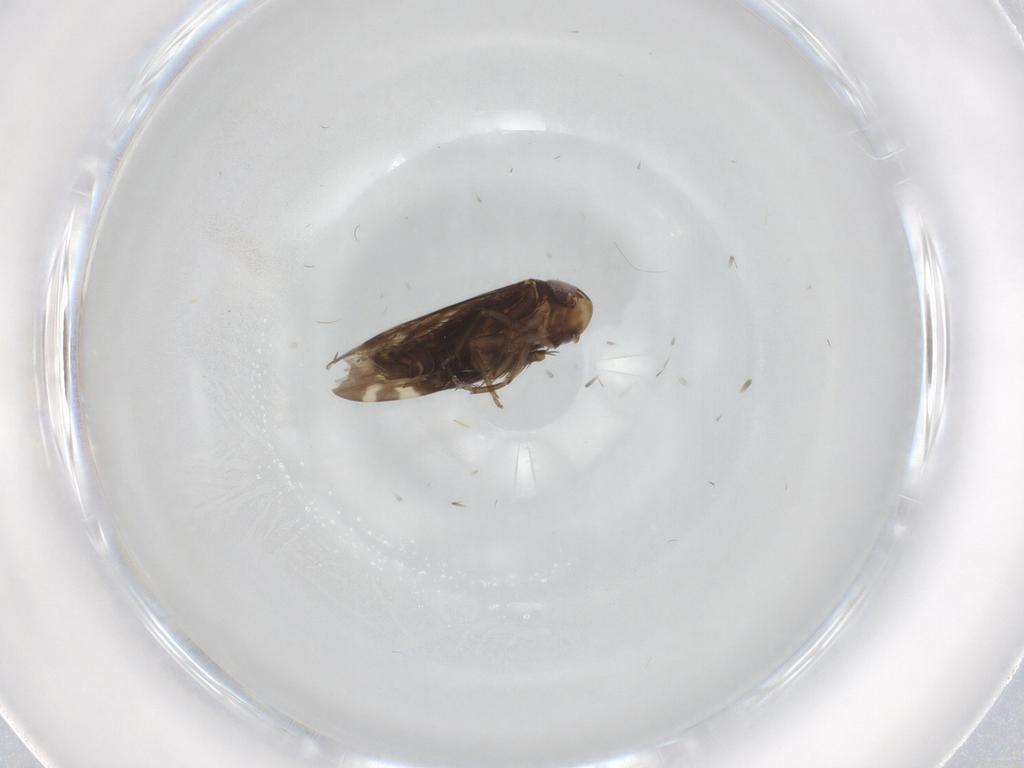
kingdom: Animalia
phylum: Arthropoda
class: Insecta
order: Hemiptera
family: Cicadellidae
